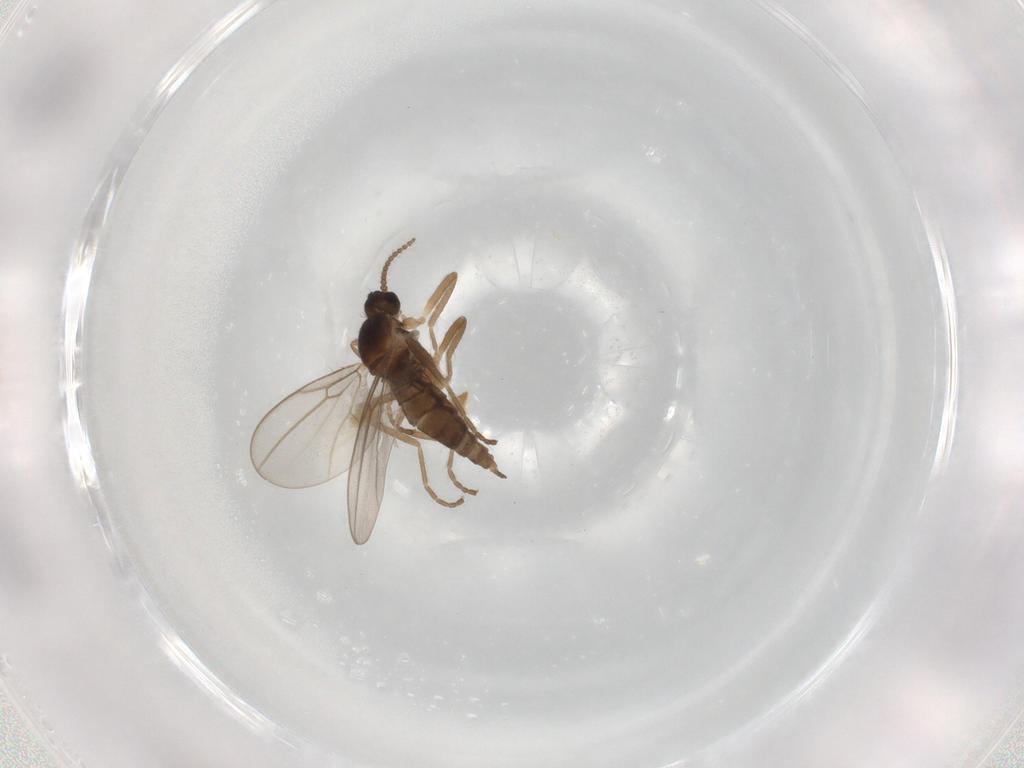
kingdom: Animalia
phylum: Arthropoda
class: Insecta
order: Diptera
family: Cecidomyiidae
